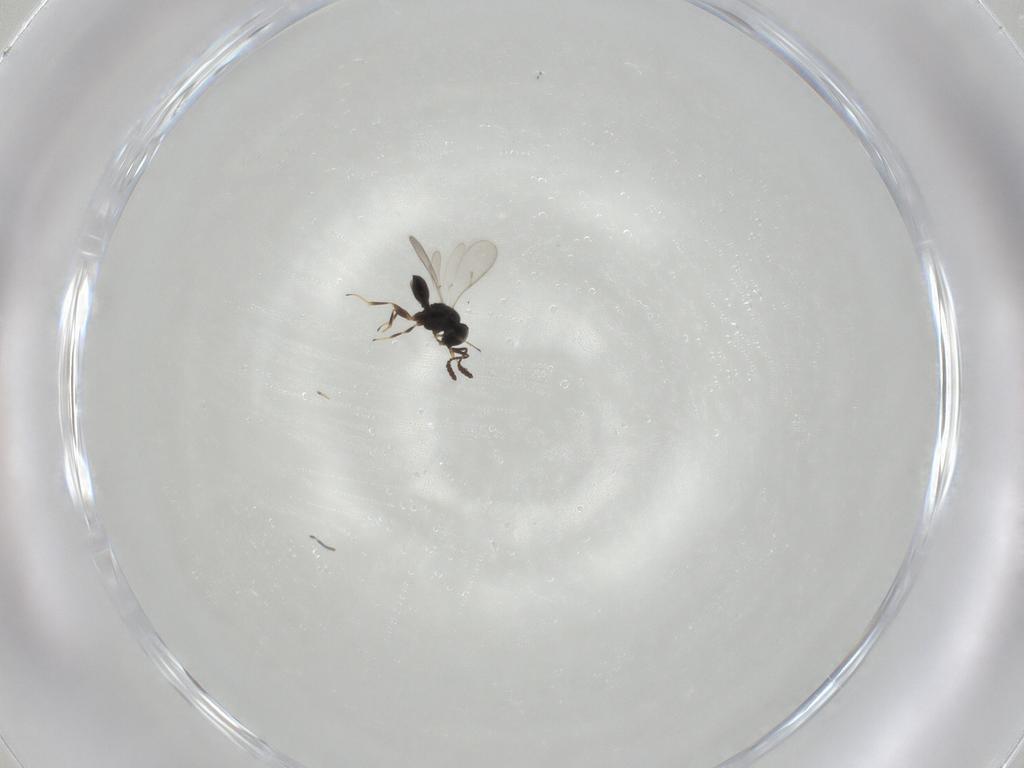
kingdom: Animalia
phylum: Arthropoda
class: Insecta
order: Hymenoptera
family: Scelionidae
